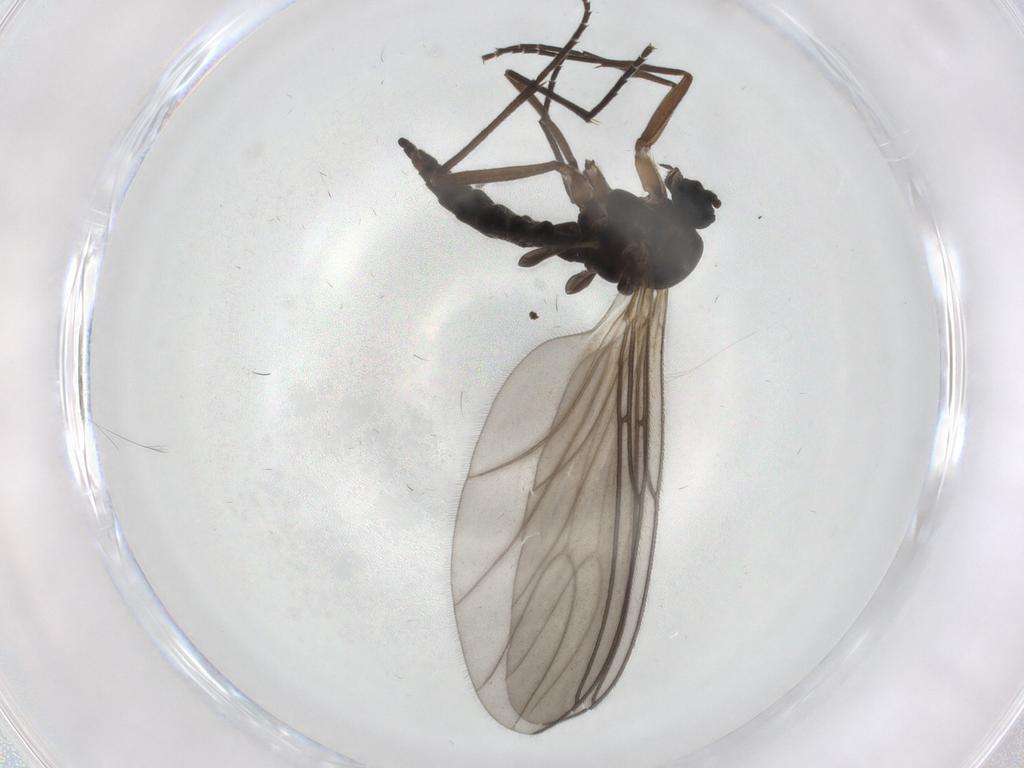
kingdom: Animalia
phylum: Arthropoda
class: Insecta
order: Diptera
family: Sciaridae
